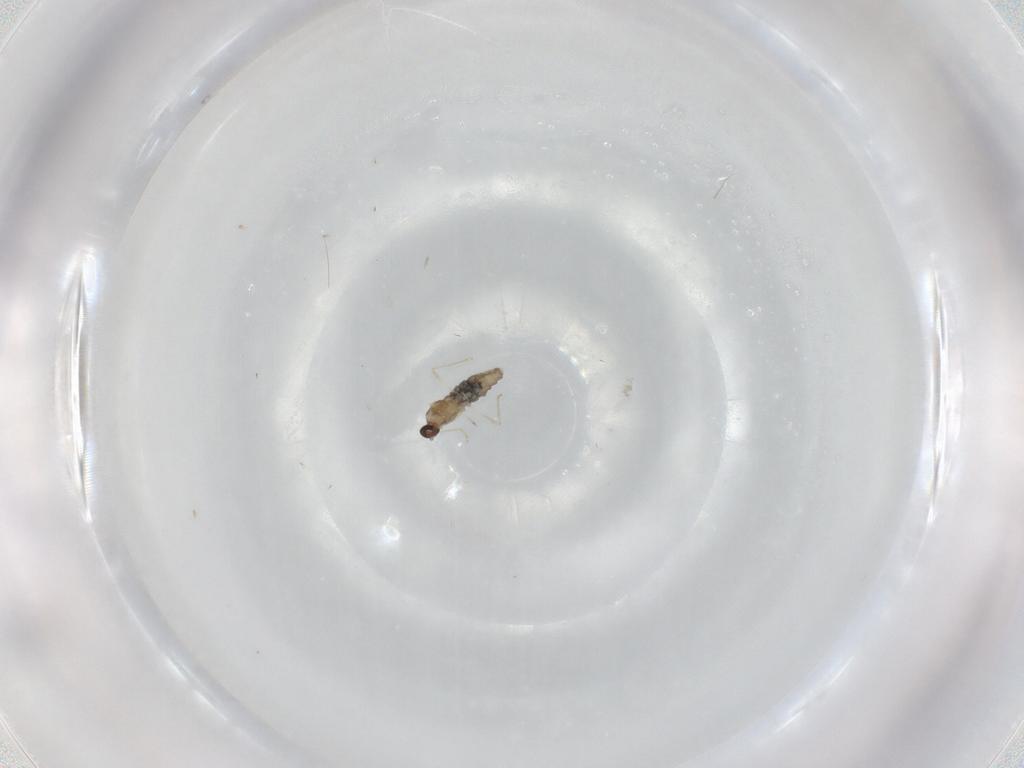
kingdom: Animalia
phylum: Arthropoda
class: Insecta
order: Diptera
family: Cecidomyiidae
